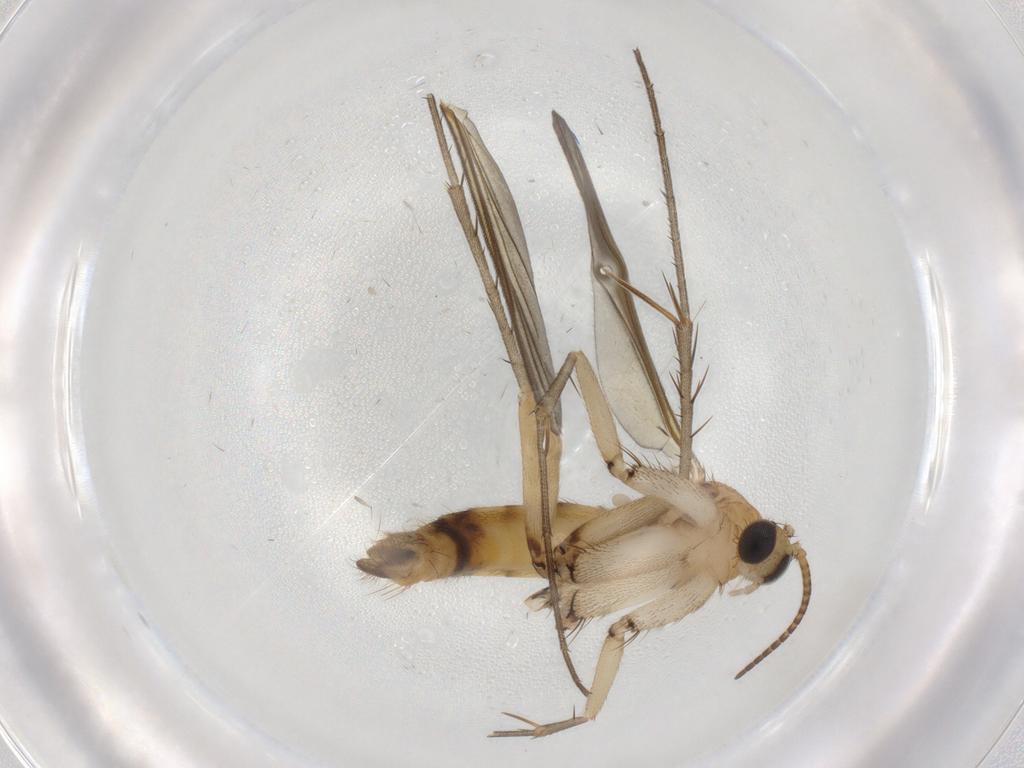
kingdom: Animalia
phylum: Arthropoda
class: Insecta
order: Diptera
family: Mycetophilidae
